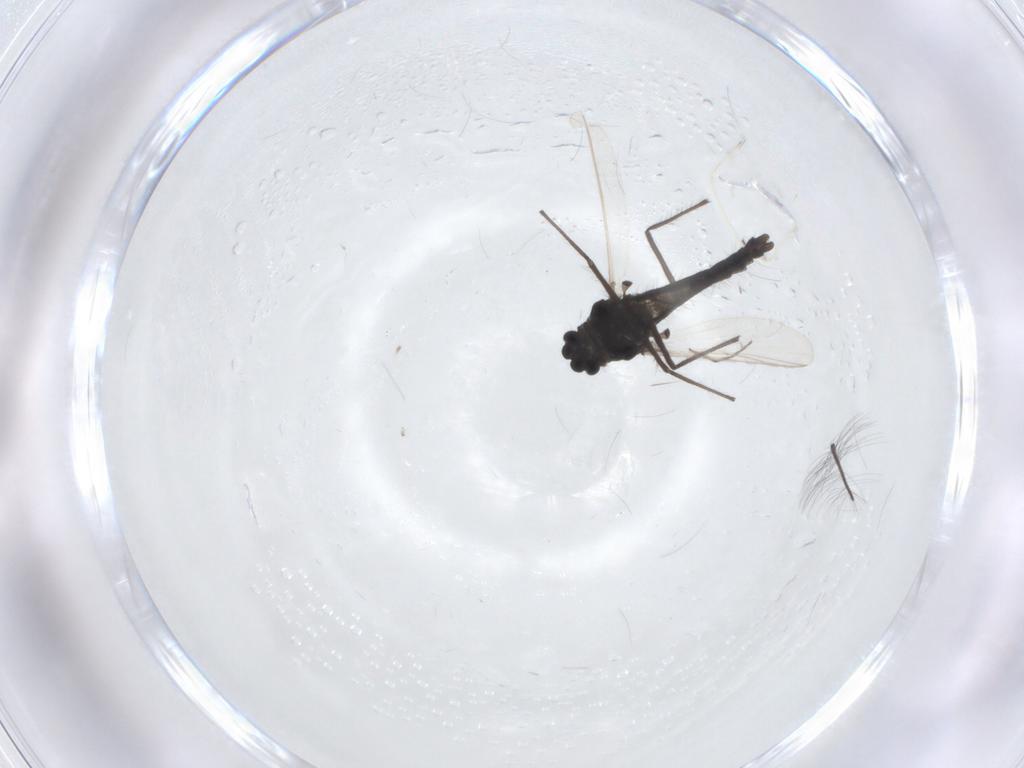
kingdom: Animalia
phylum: Arthropoda
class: Insecta
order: Diptera
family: Chironomidae
